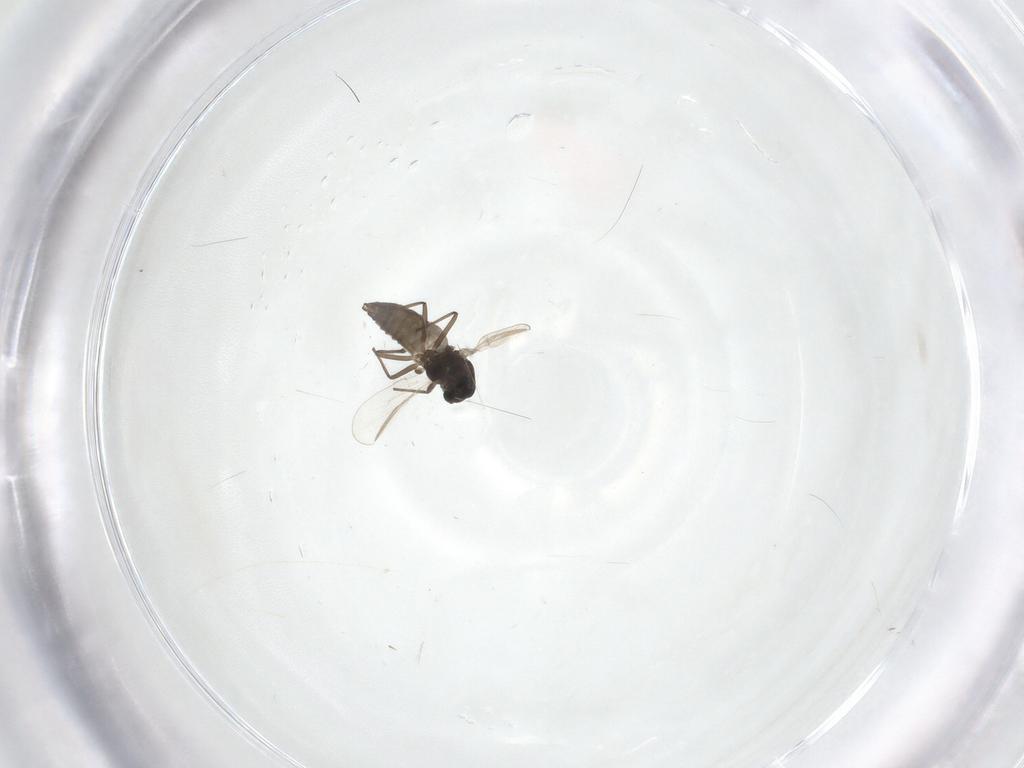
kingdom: Animalia
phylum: Arthropoda
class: Insecta
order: Diptera
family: Chironomidae
